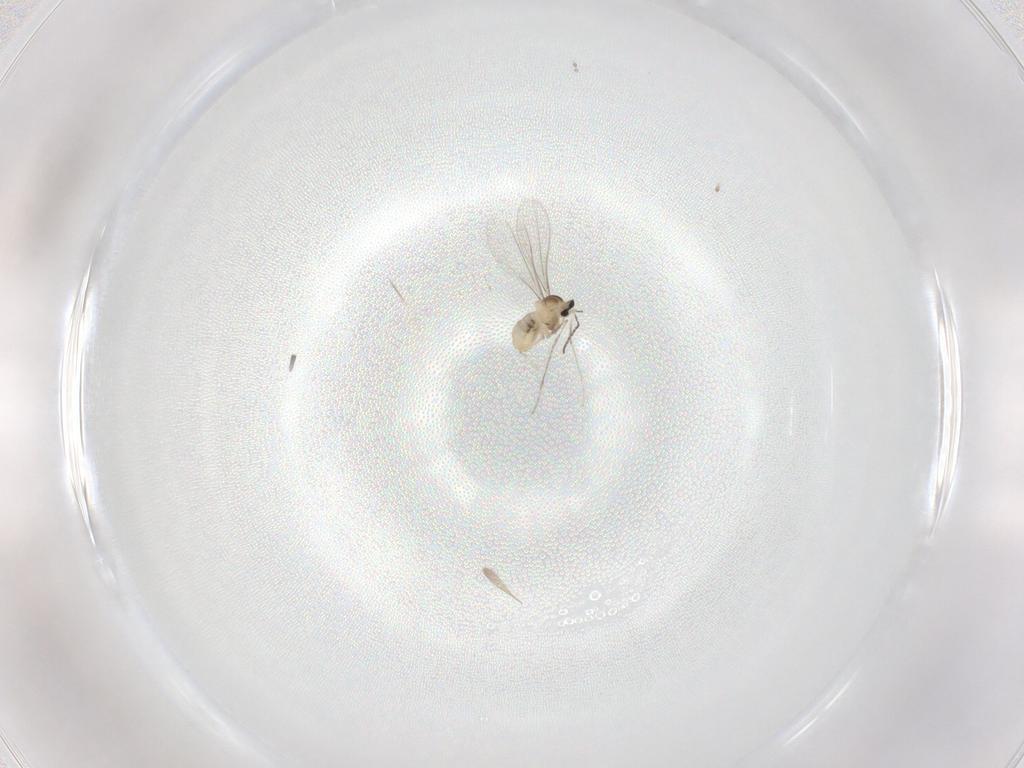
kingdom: Animalia
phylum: Arthropoda
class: Insecta
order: Diptera
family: Cecidomyiidae
